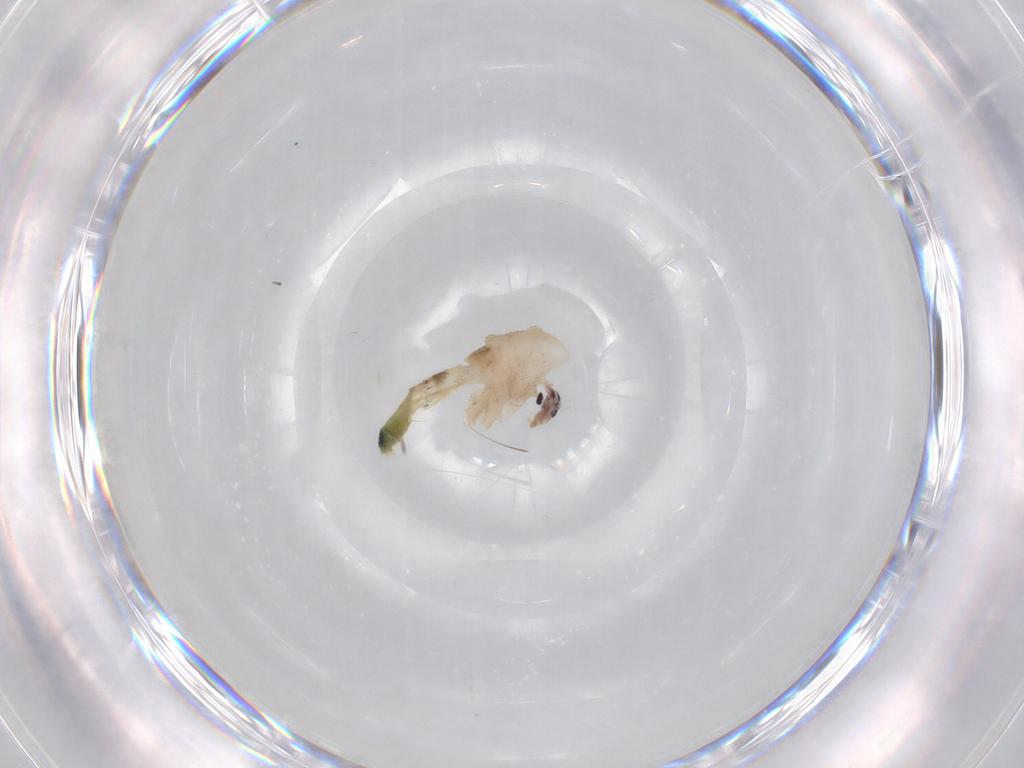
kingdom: Animalia
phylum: Arthropoda
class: Insecta
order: Diptera
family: Chironomidae
